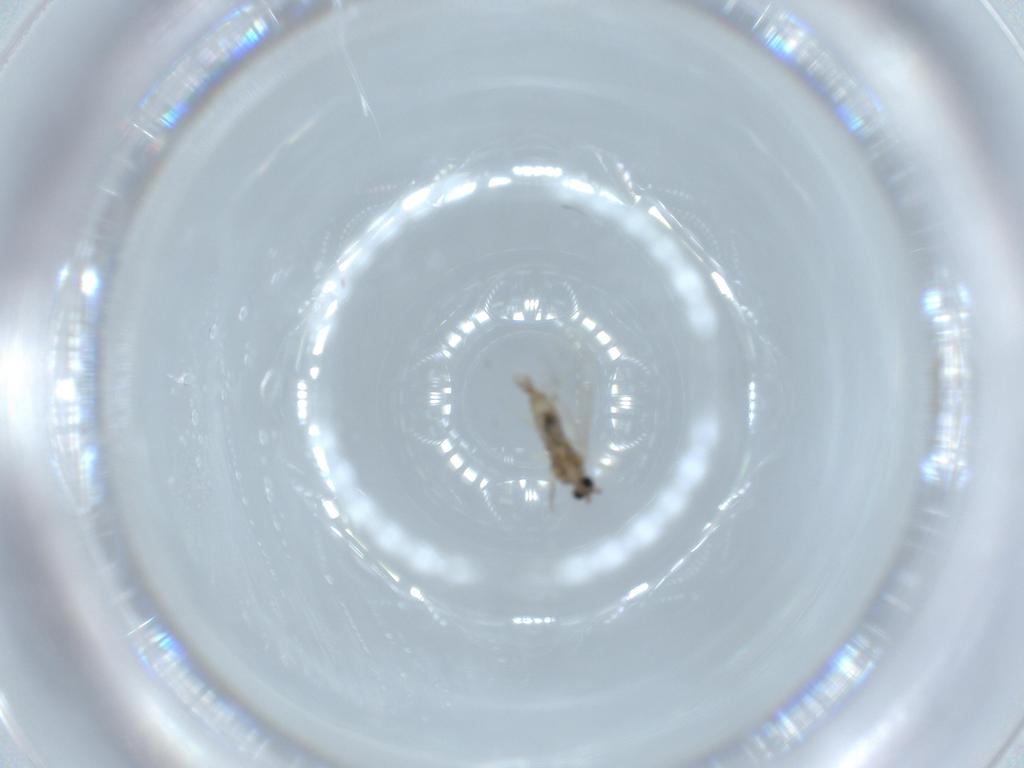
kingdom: Animalia
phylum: Arthropoda
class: Insecta
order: Diptera
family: Cecidomyiidae
